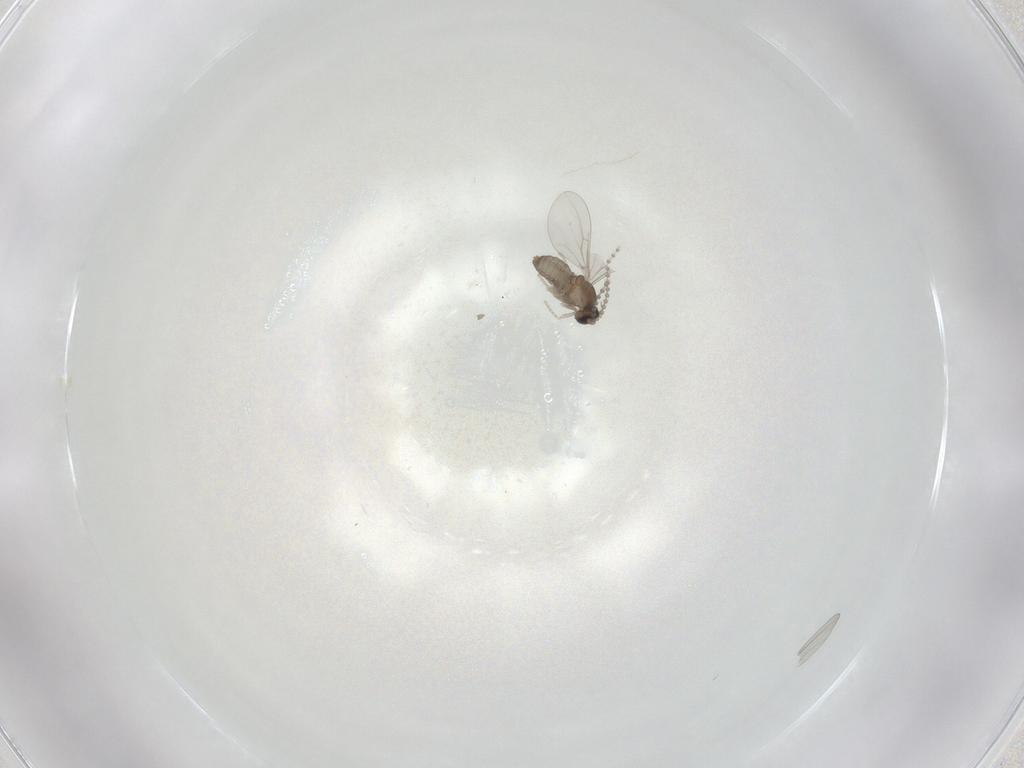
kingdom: Animalia
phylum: Arthropoda
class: Insecta
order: Diptera
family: Cecidomyiidae
